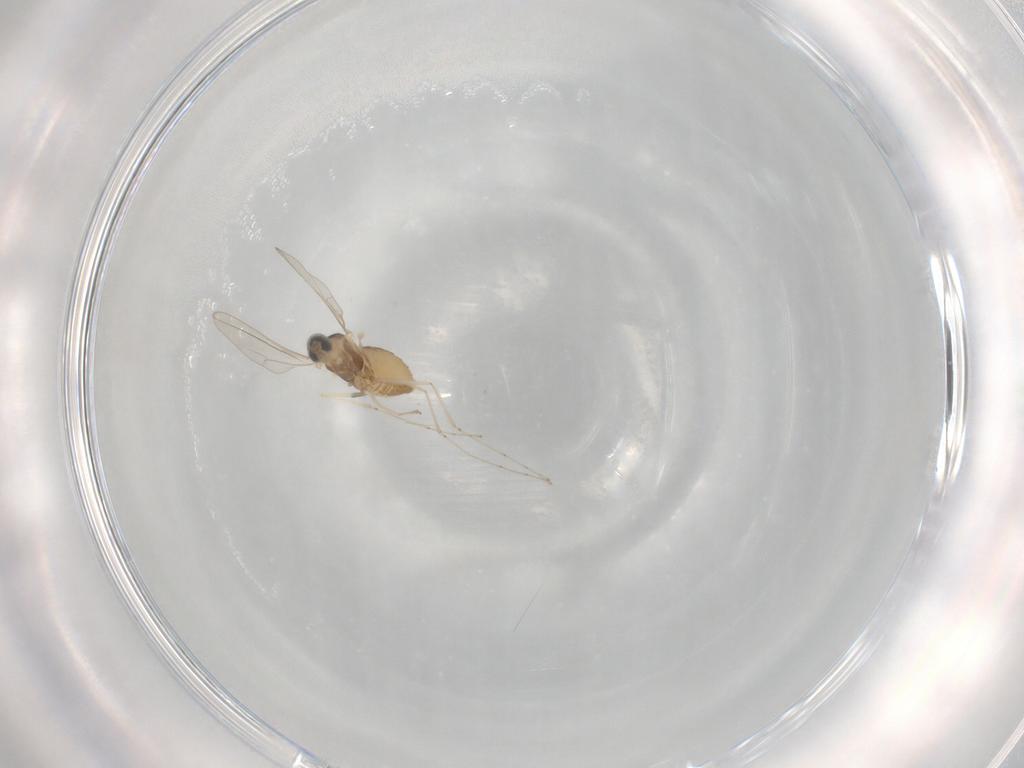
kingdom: Animalia
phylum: Arthropoda
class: Insecta
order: Diptera
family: Cecidomyiidae
